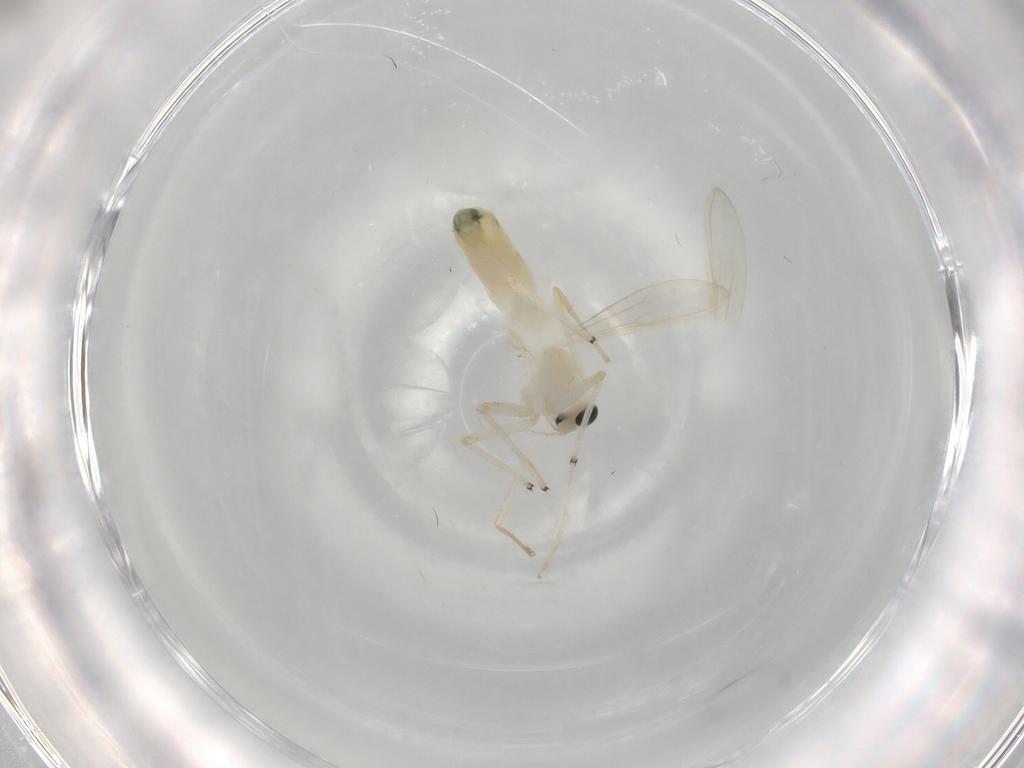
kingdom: Animalia
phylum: Arthropoda
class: Insecta
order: Diptera
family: Chironomidae
